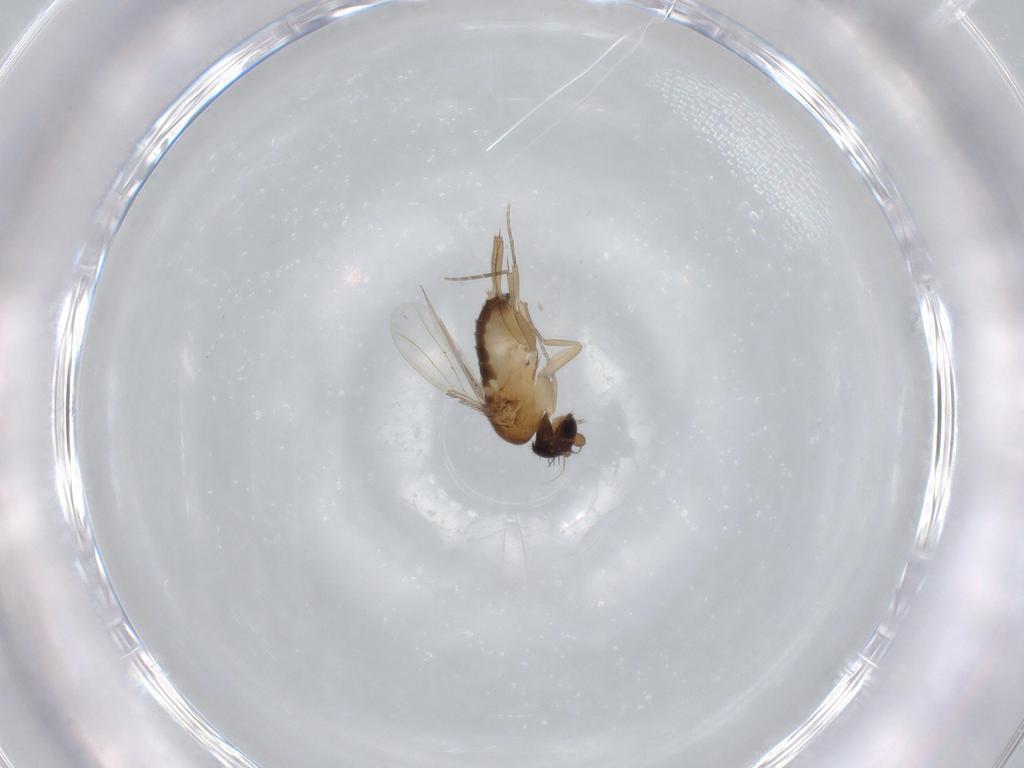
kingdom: Animalia
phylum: Arthropoda
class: Insecta
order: Diptera
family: Phoridae
